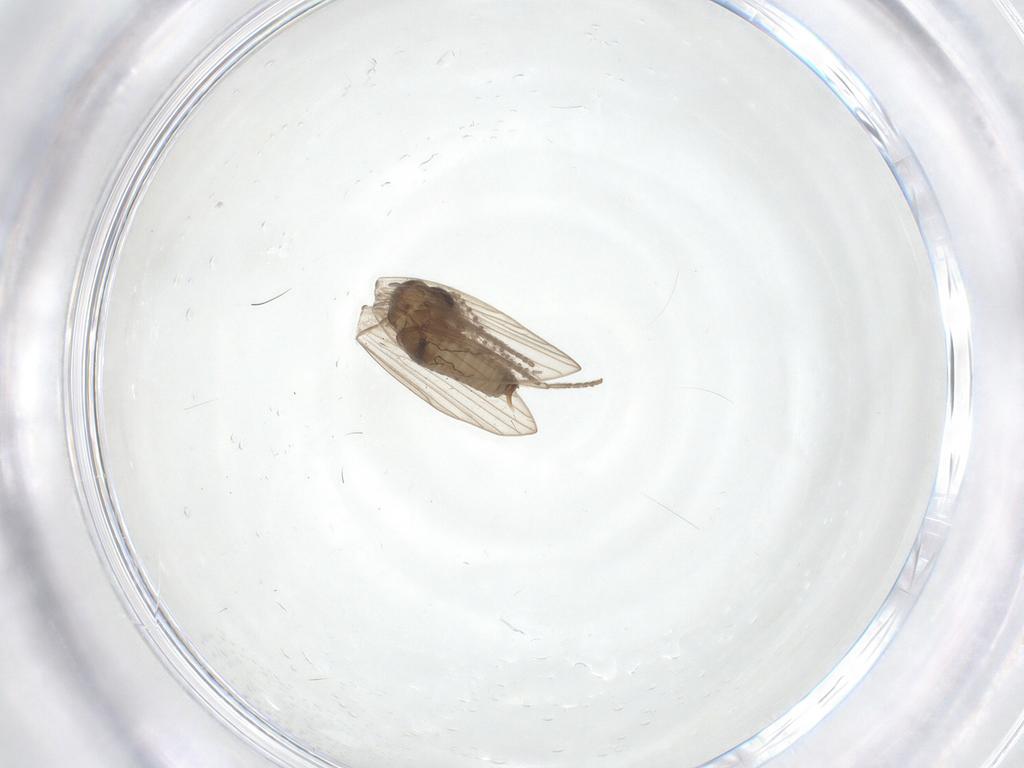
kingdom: Animalia
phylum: Arthropoda
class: Insecta
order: Diptera
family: Psychodidae
